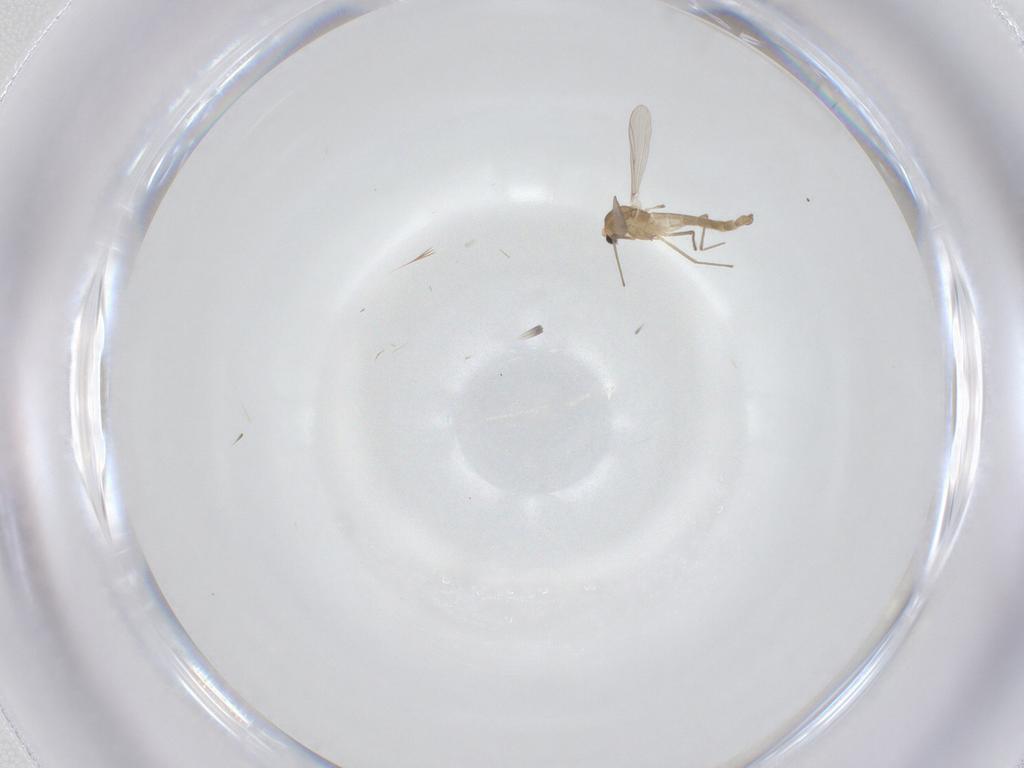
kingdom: Animalia
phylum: Arthropoda
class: Insecta
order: Diptera
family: Chironomidae
